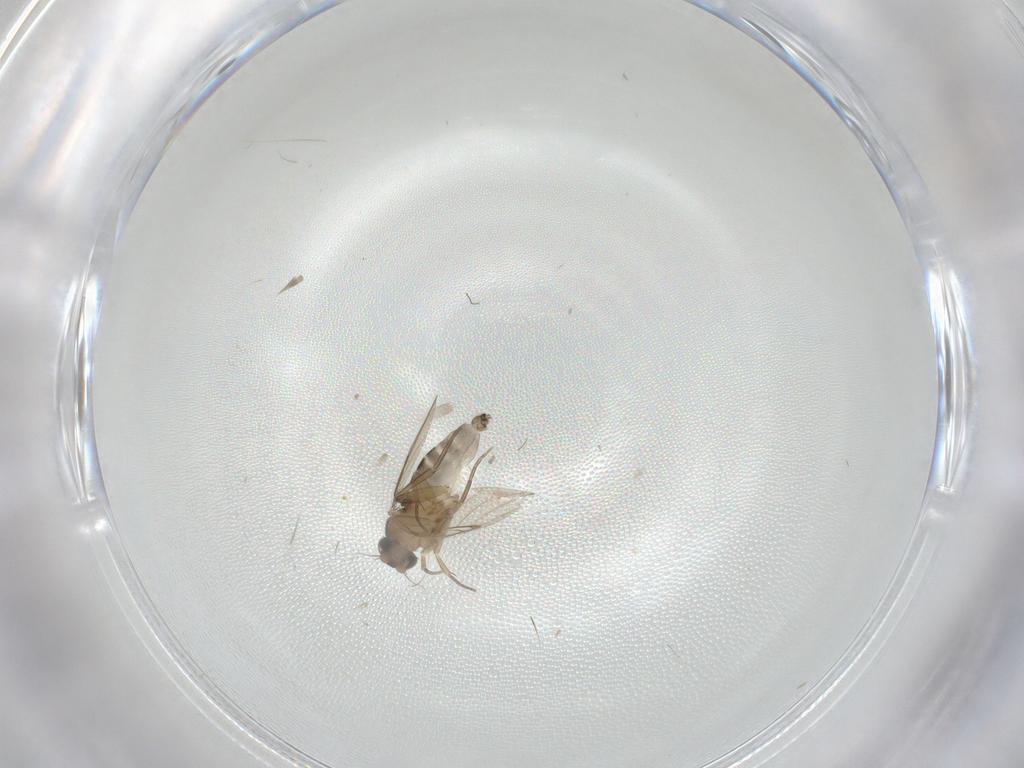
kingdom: Animalia
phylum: Arthropoda
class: Insecta
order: Diptera
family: Phoridae
